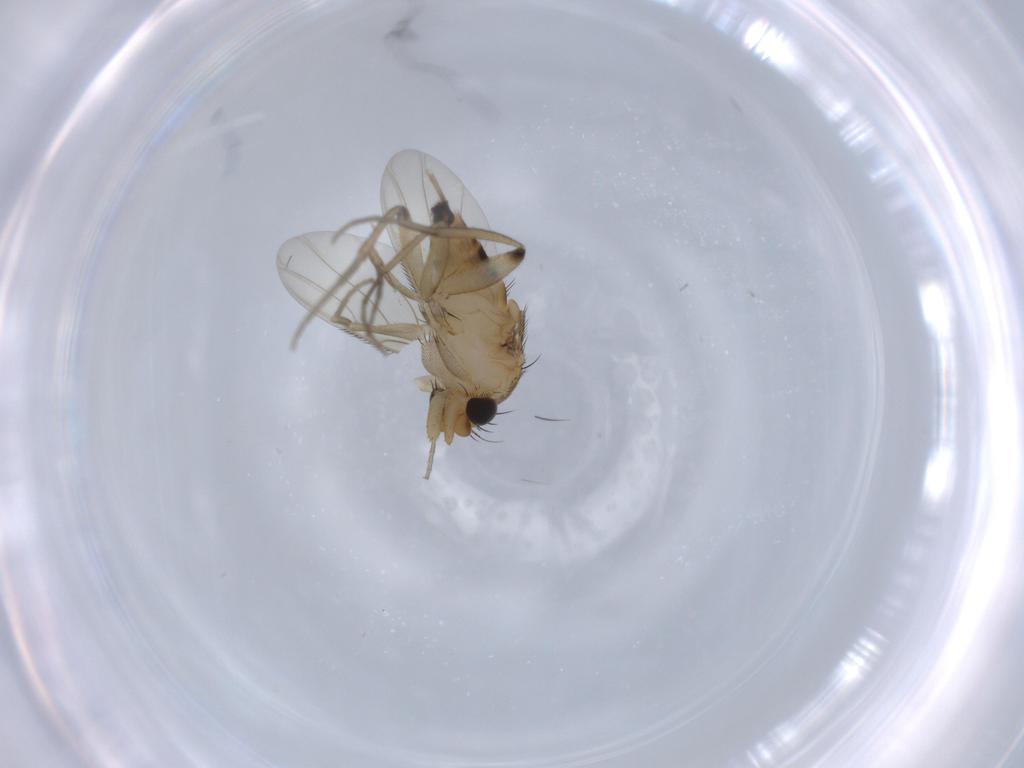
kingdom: Animalia
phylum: Arthropoda
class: Insecta
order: Diptera
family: Phoridae
